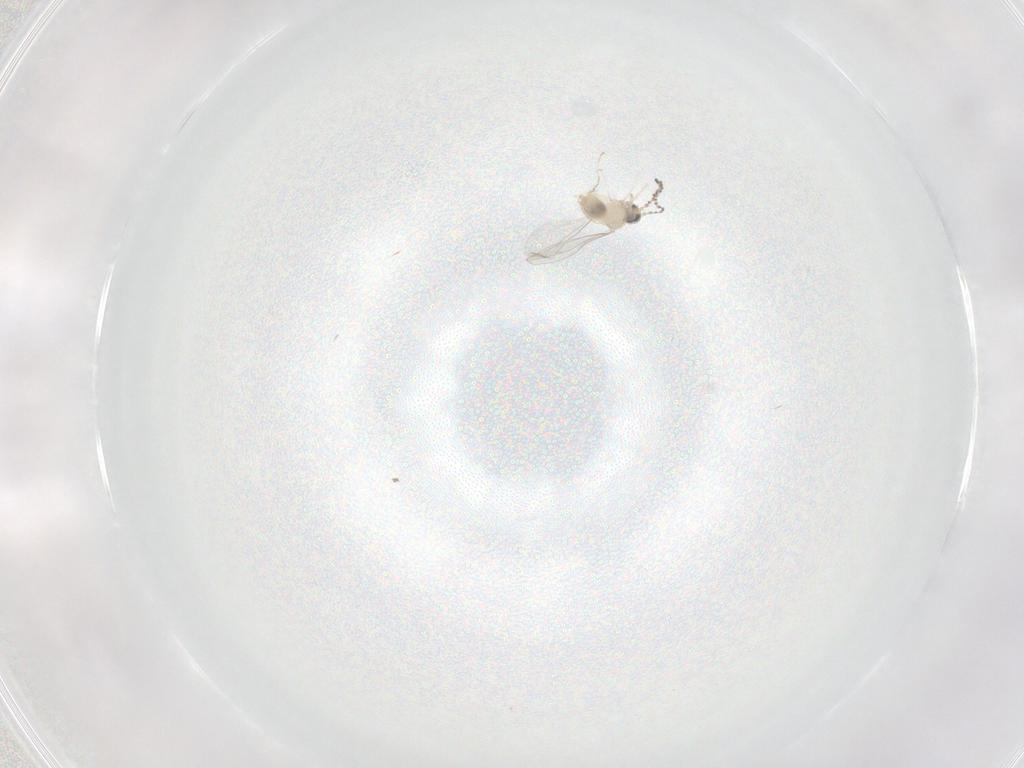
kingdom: Animalia
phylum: Arthropoda
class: Insecta
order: Diptera
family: Cecidomyiidae
